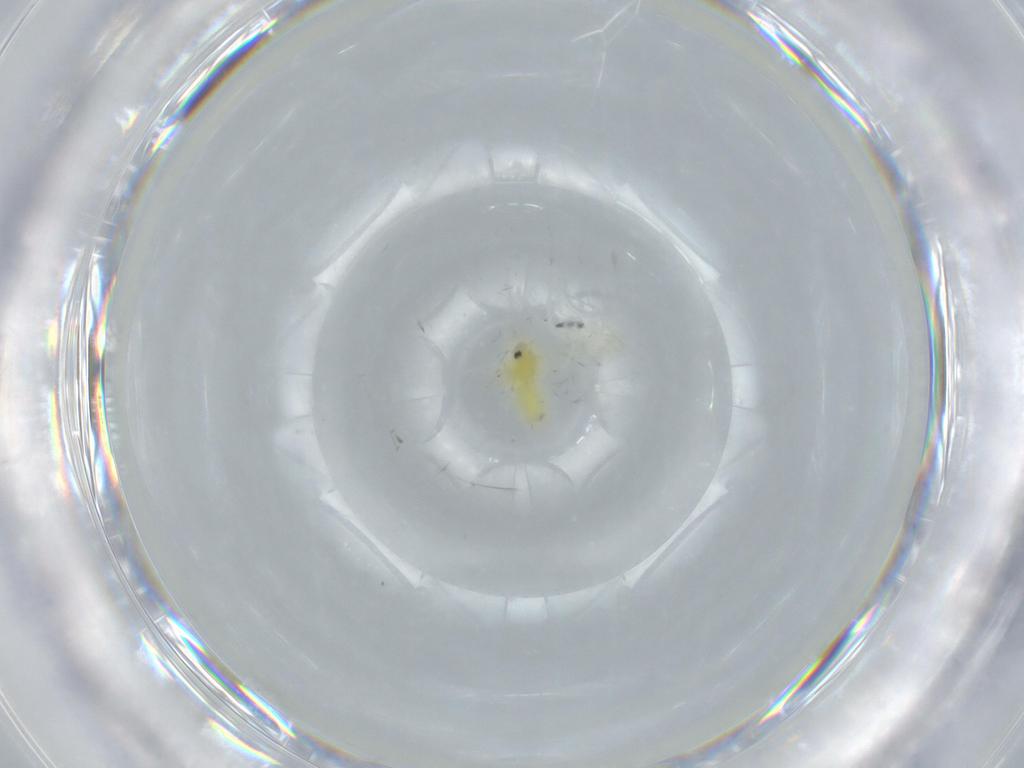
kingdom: Animalia
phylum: Arthropoda
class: Insecta
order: Hemiptera
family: Aleyrodidae
